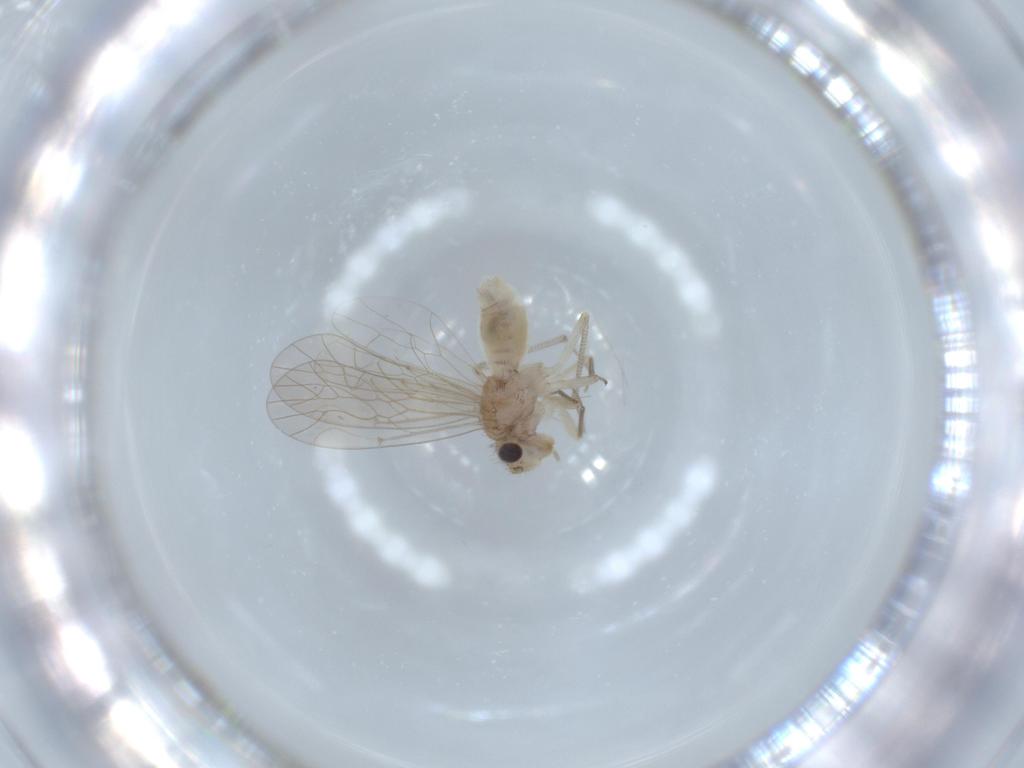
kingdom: Animalia
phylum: Arthropoda
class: Insecta
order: Psocodea
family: Caeciliusidae
